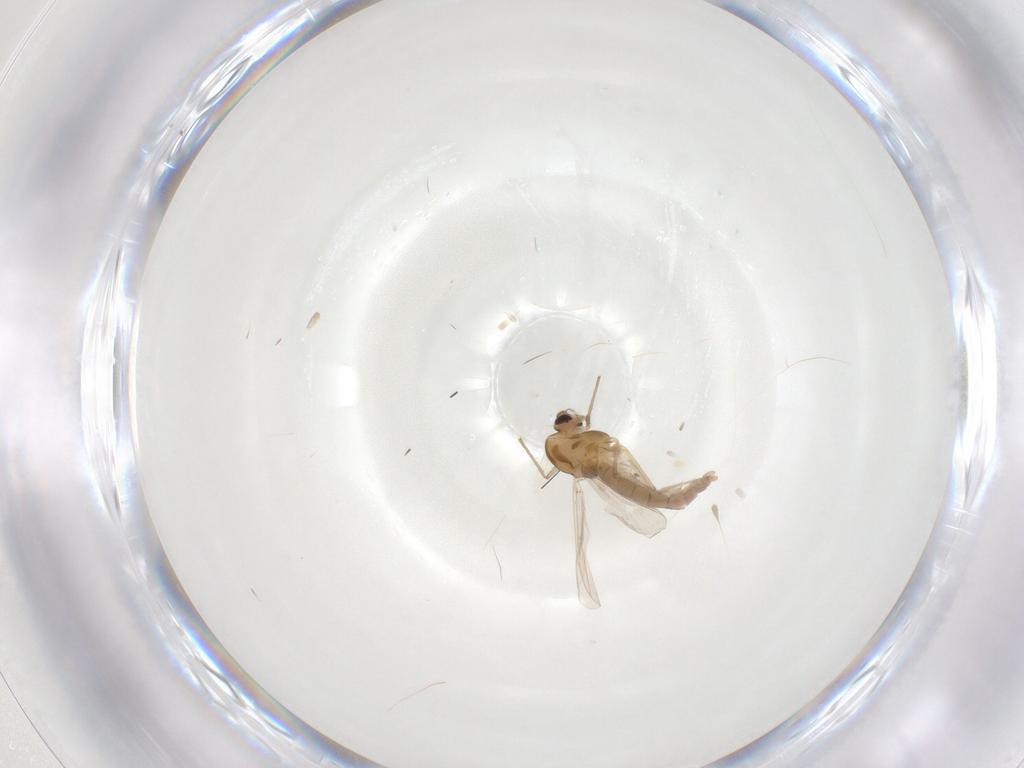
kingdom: Animalia
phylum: Arthropoda
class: Insecta
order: Diptera
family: Chironomidae
